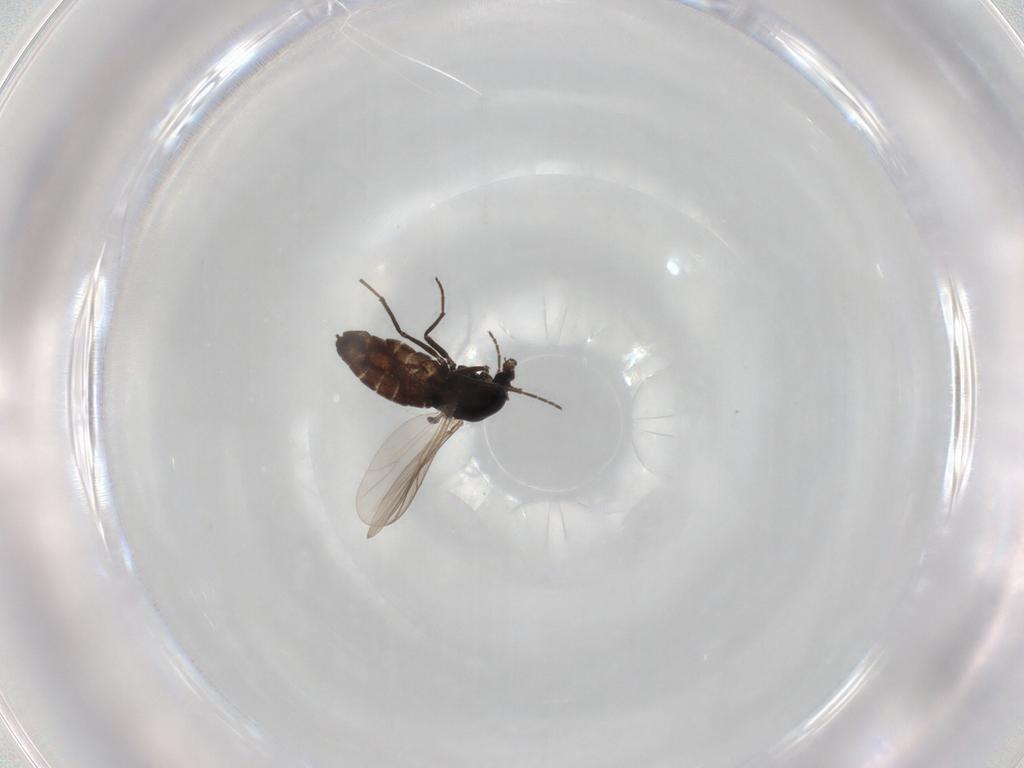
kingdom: Animalia
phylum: Arthropoda
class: Insecta
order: Diptera
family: Chironomidae
